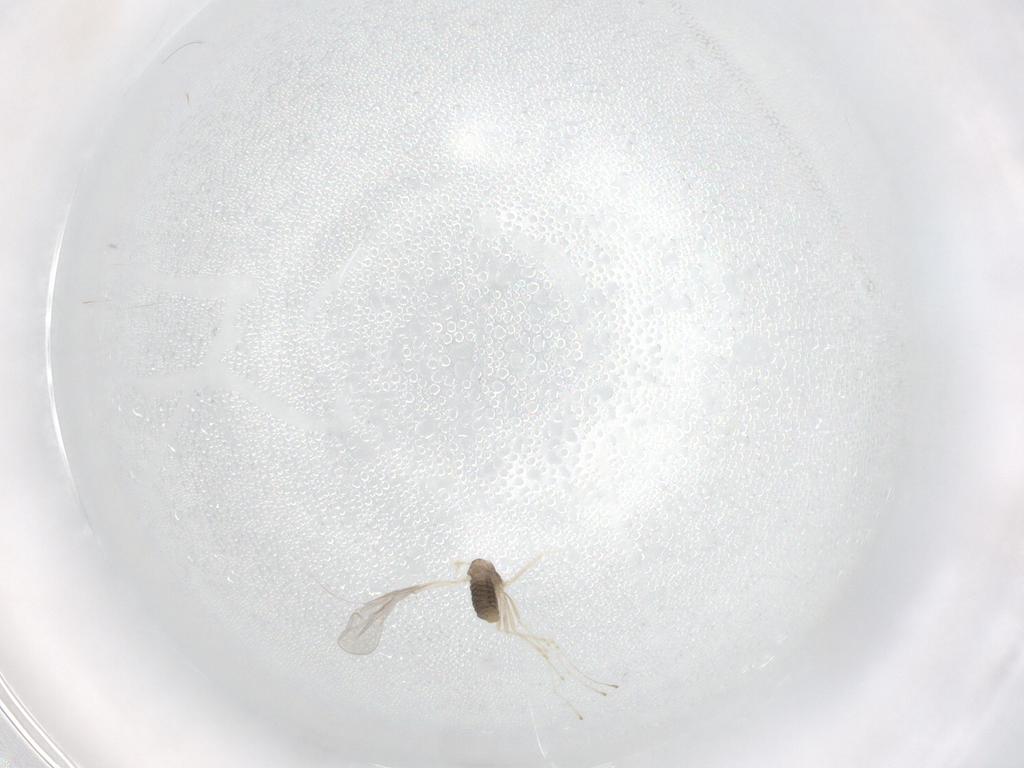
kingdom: Animalia
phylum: Arthropoda
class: Insecta
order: Diptera
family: Cecidomyiidae
